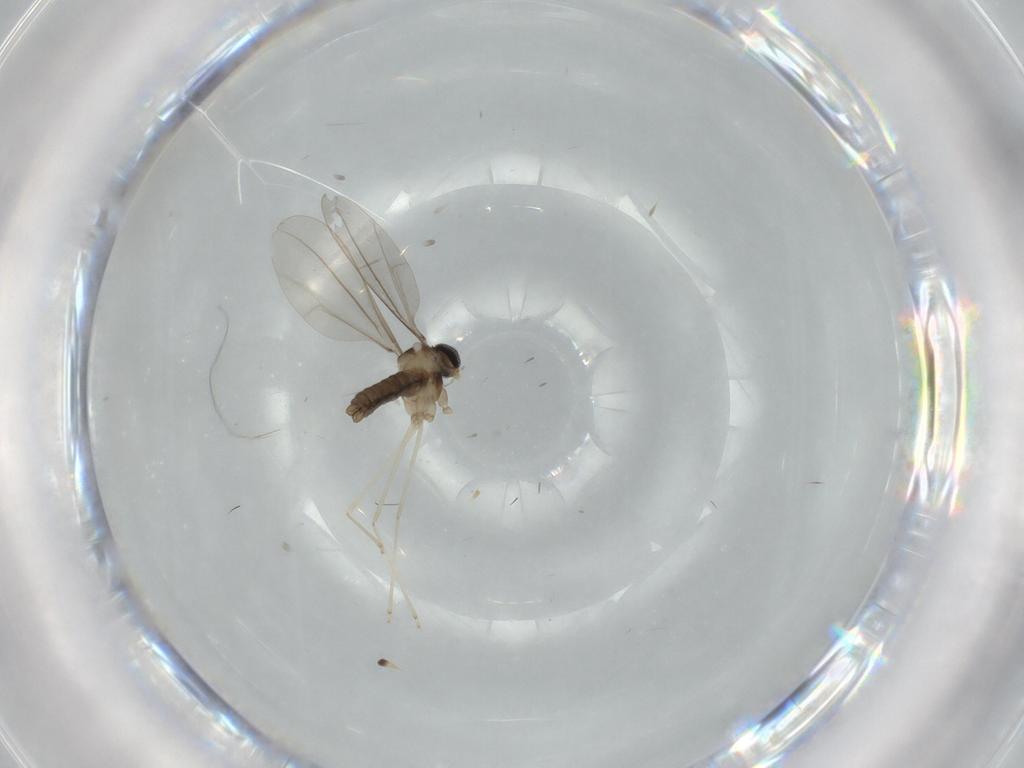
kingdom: Animalia
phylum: Arthropoda
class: Insecta
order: Diptera
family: Cecidomyiidae
